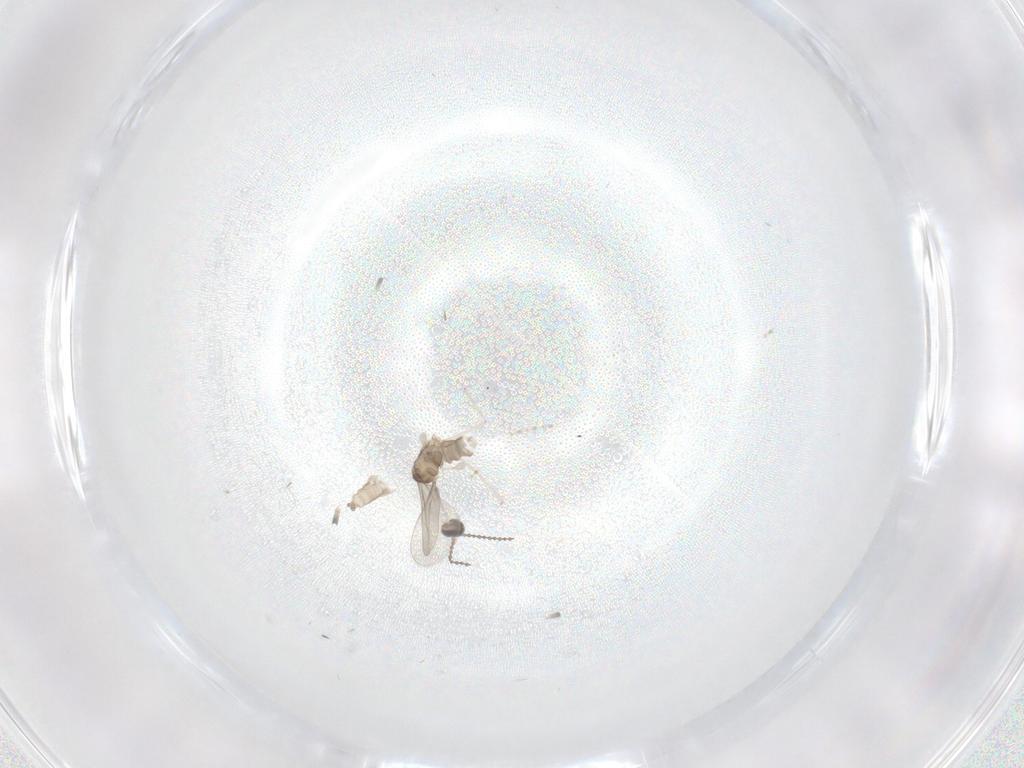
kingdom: Animalia
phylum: Arthropoda
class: Insecta
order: Diptera
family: Cecidomyiidae
